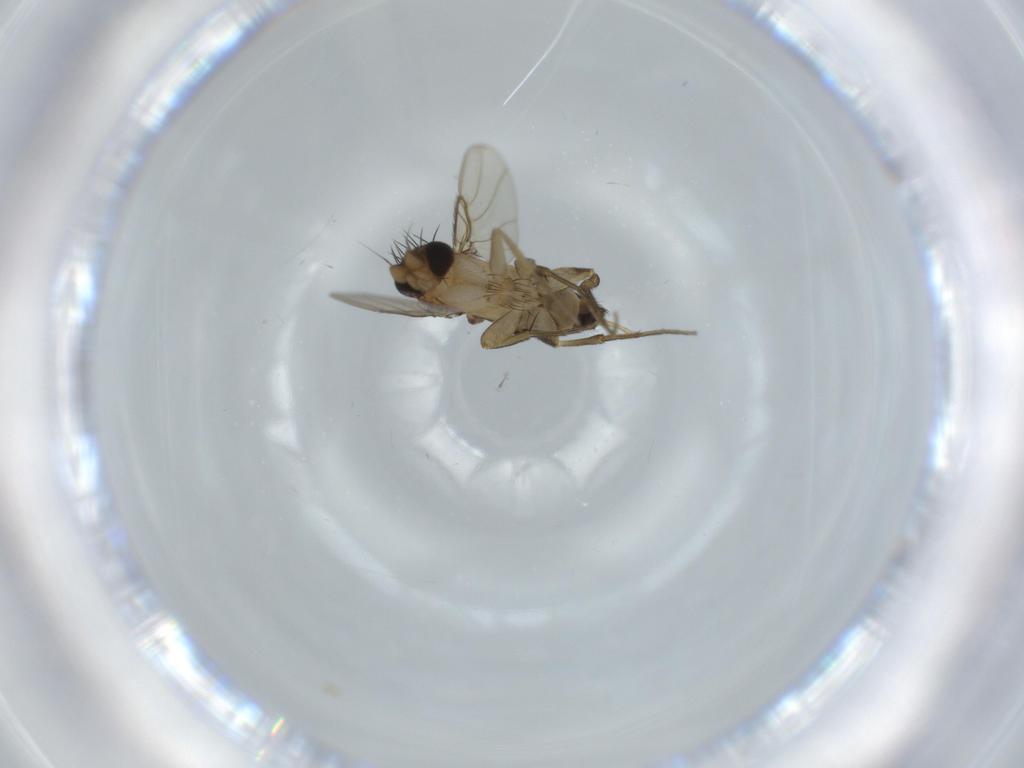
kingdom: Animalia
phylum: Arthropoda
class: Insecta
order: Diptera
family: Phoridae
